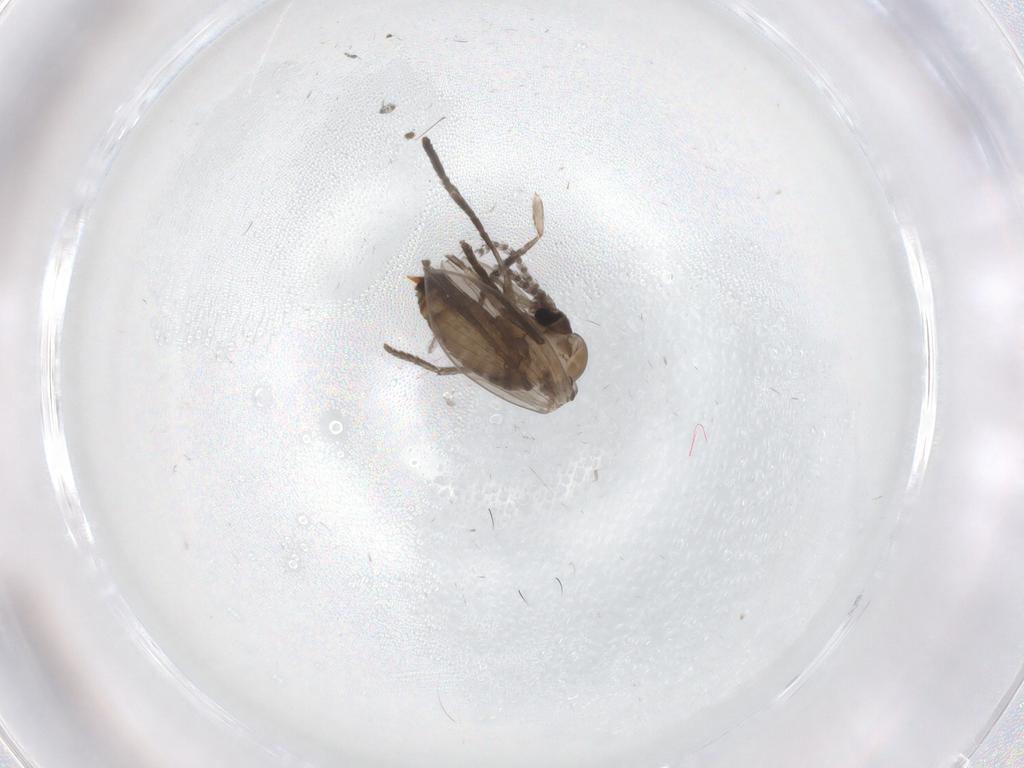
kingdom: Animalia
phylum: Arthropoda
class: Insecta
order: Diptera
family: Psychodidae
